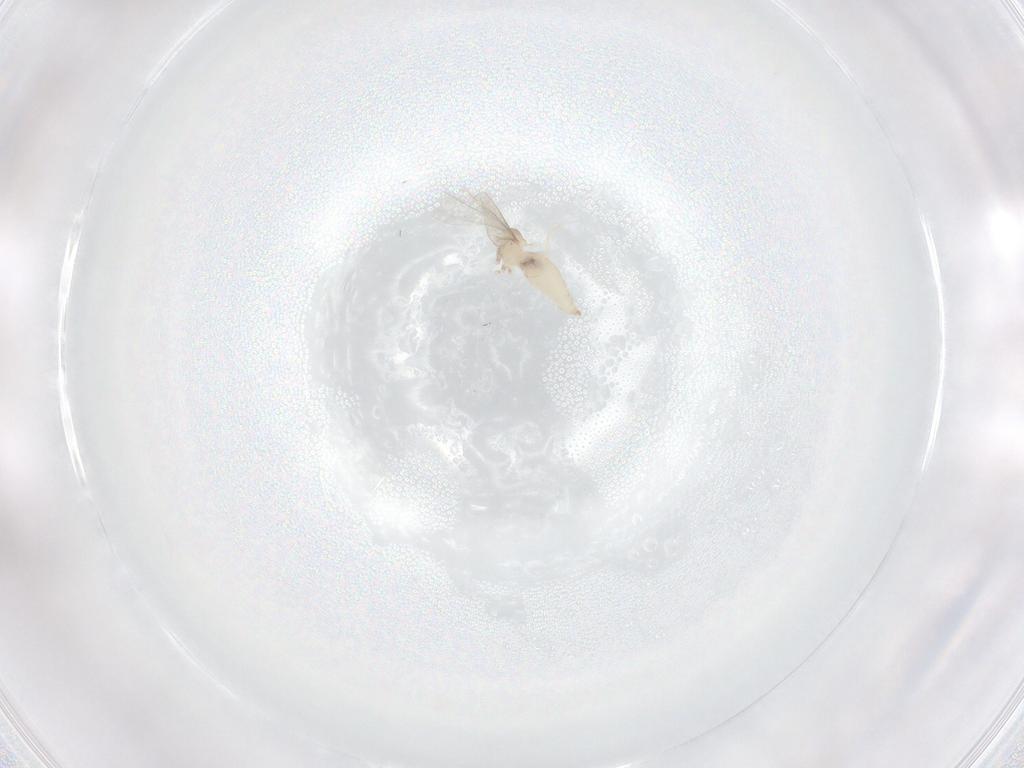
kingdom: Animalia
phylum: Arthropoda
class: Insecta
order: Diptera
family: Cecidomyiidae
